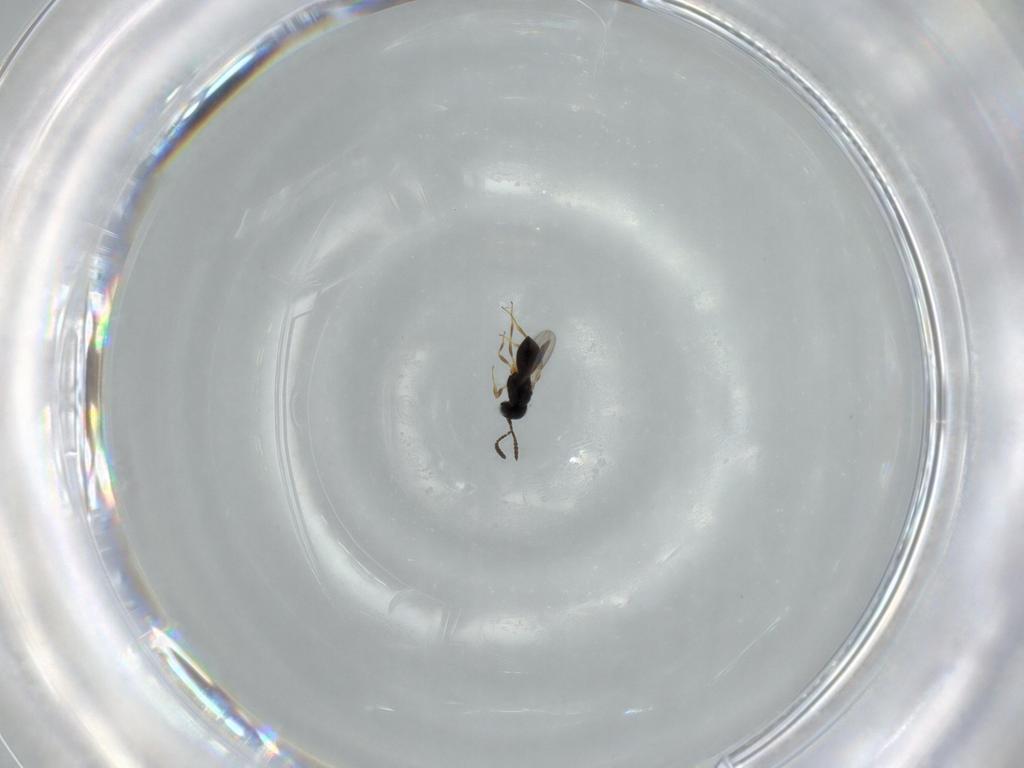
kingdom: Animalia
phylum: Arthropoda
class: Insecta
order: Hymenoptera
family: Scelionidae
